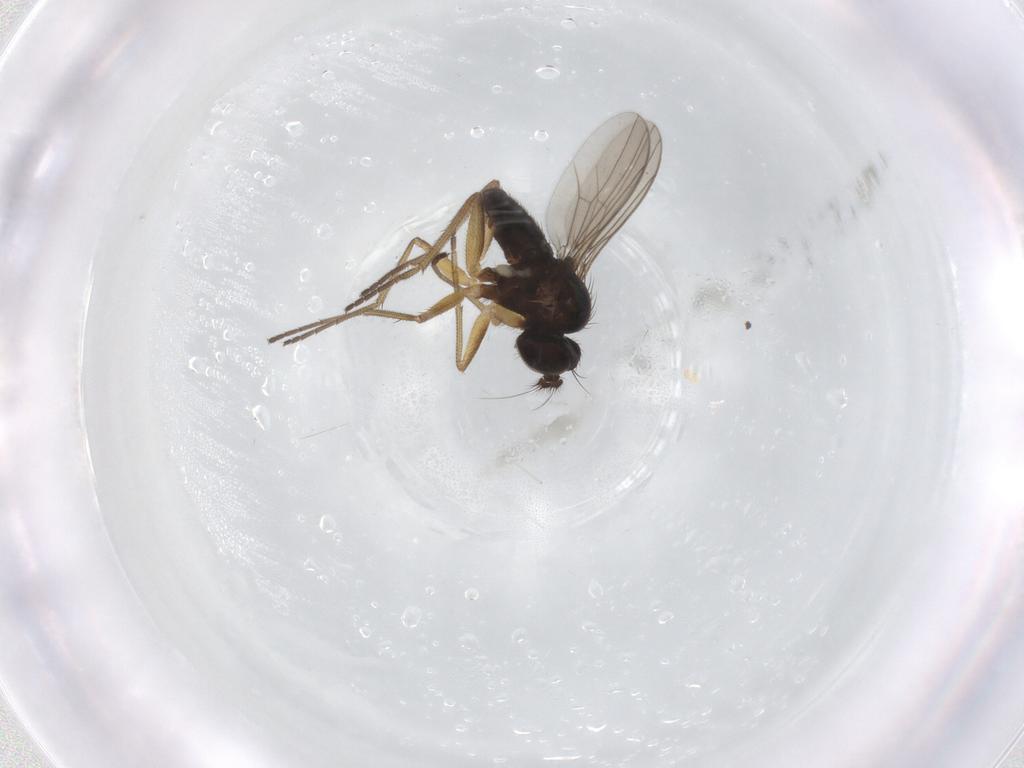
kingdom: Animalia
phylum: Arthropoda
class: Insecta
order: Diptera
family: Dolichopodidae
